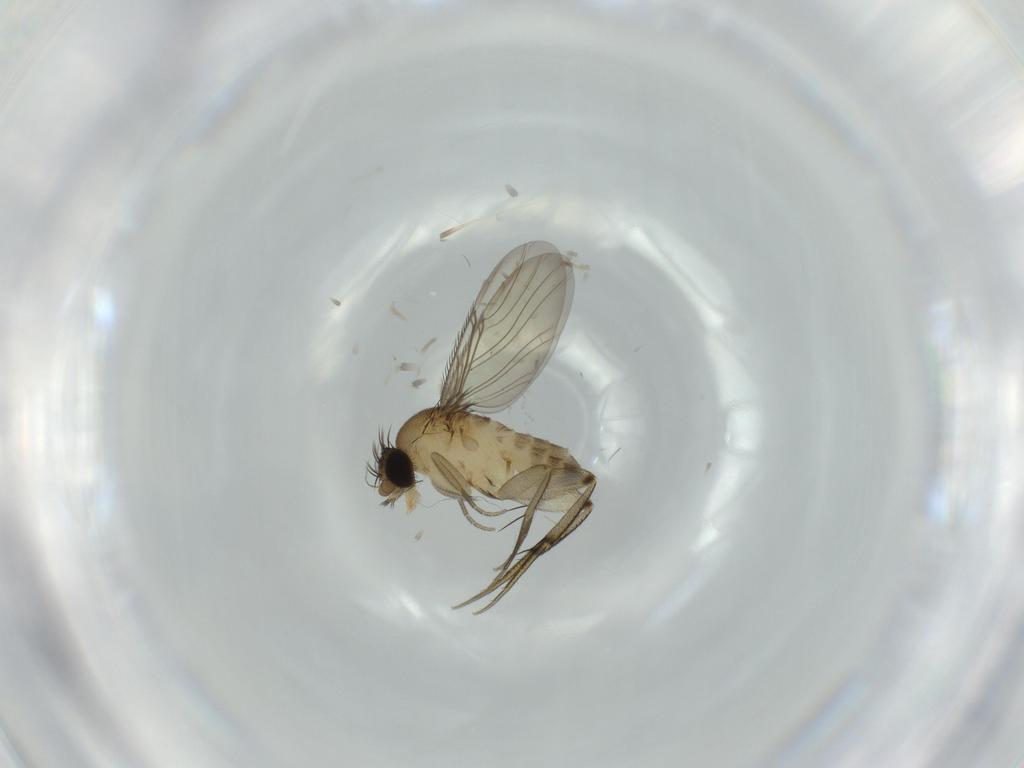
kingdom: Animalia
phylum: Arthropoda
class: Insecta
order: Diptera
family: Phoridae
